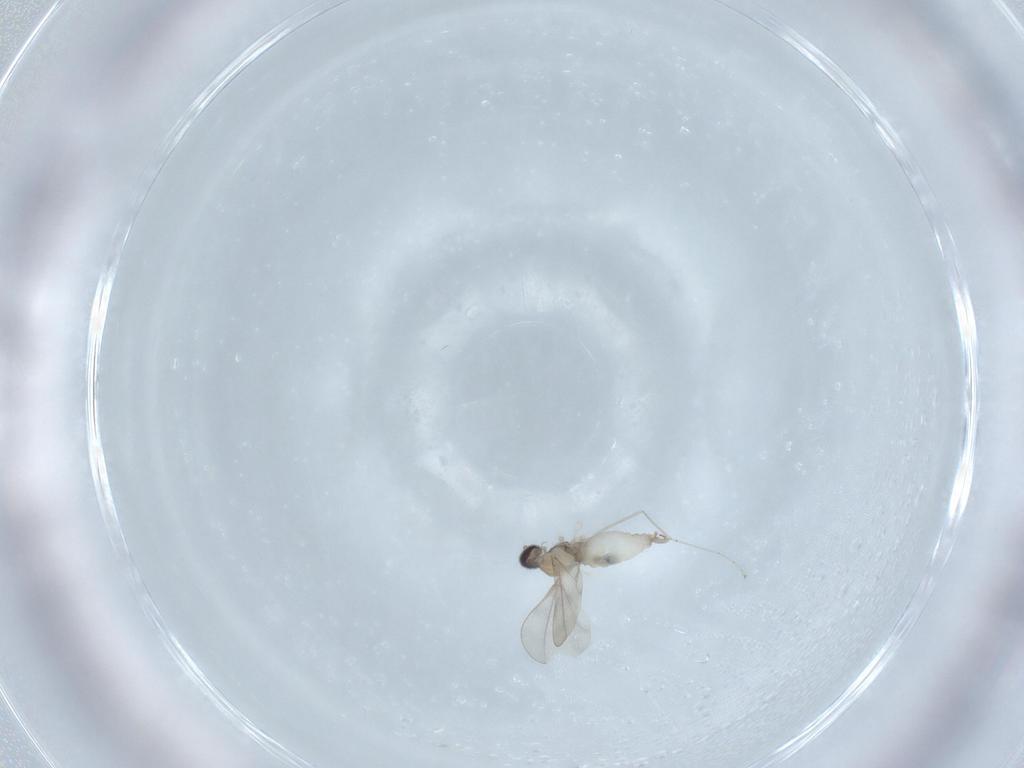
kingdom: Animalia
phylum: Arthropoda
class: Insecta
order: Diptera
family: Cecidomyiidae
